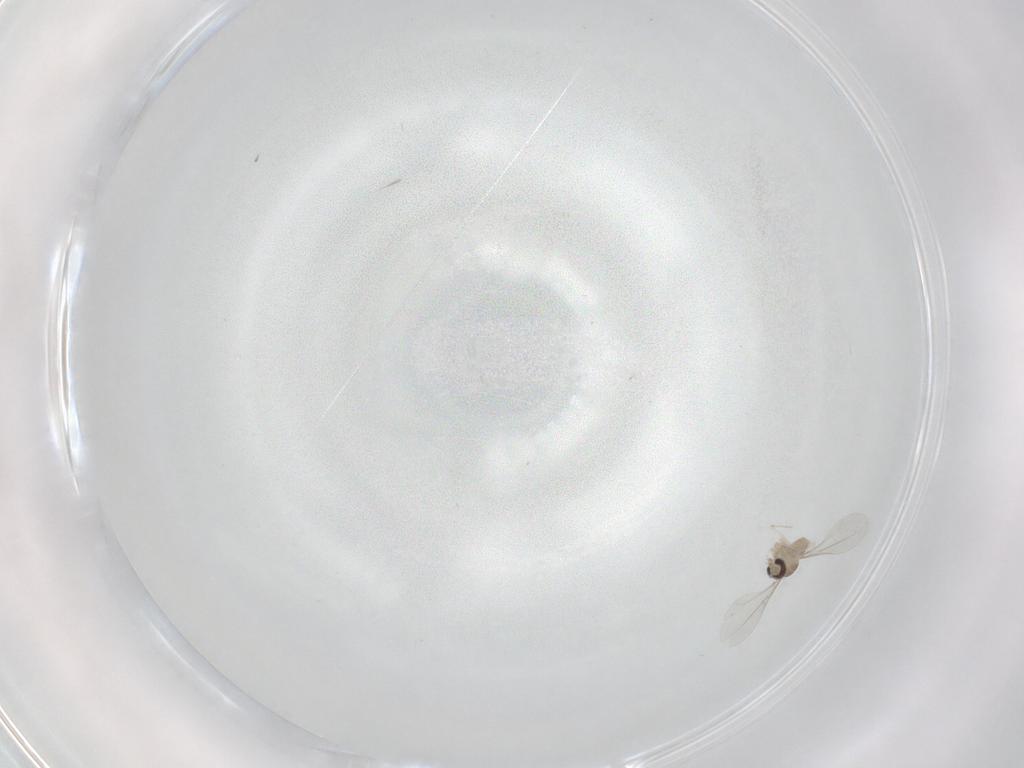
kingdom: Animalia
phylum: Arthropoda
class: Insecta
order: Diptera
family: Cecidomyiidae
